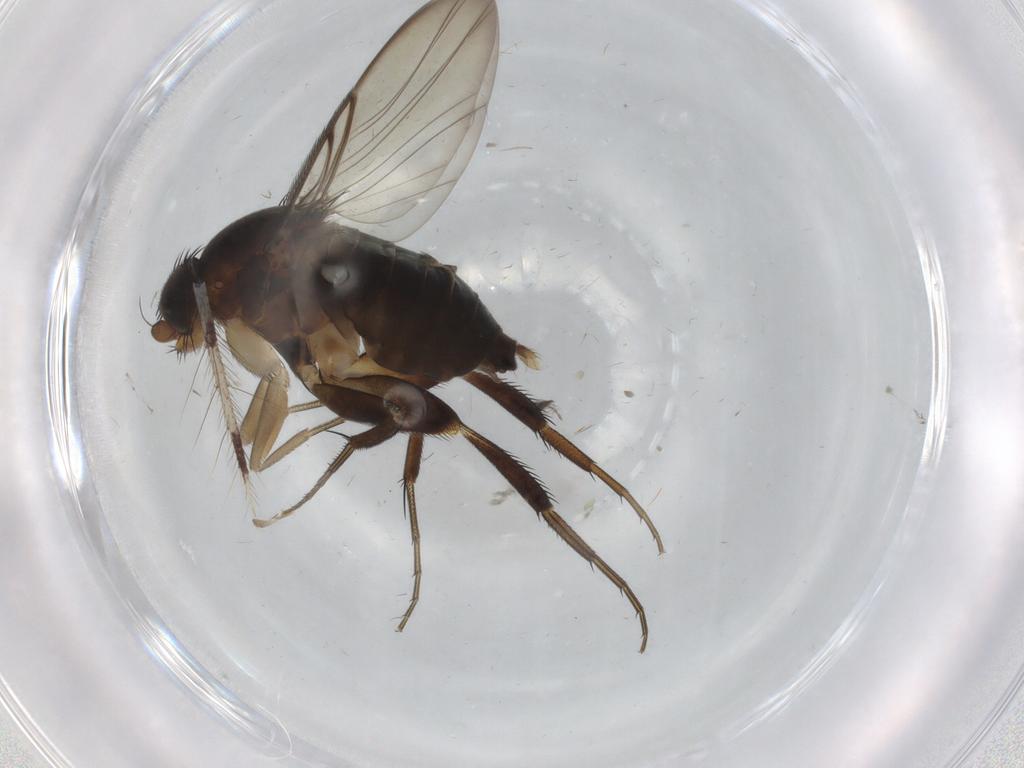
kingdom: Animalia
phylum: Arthropoda
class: Insecta
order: Diptera
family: Phoridae
